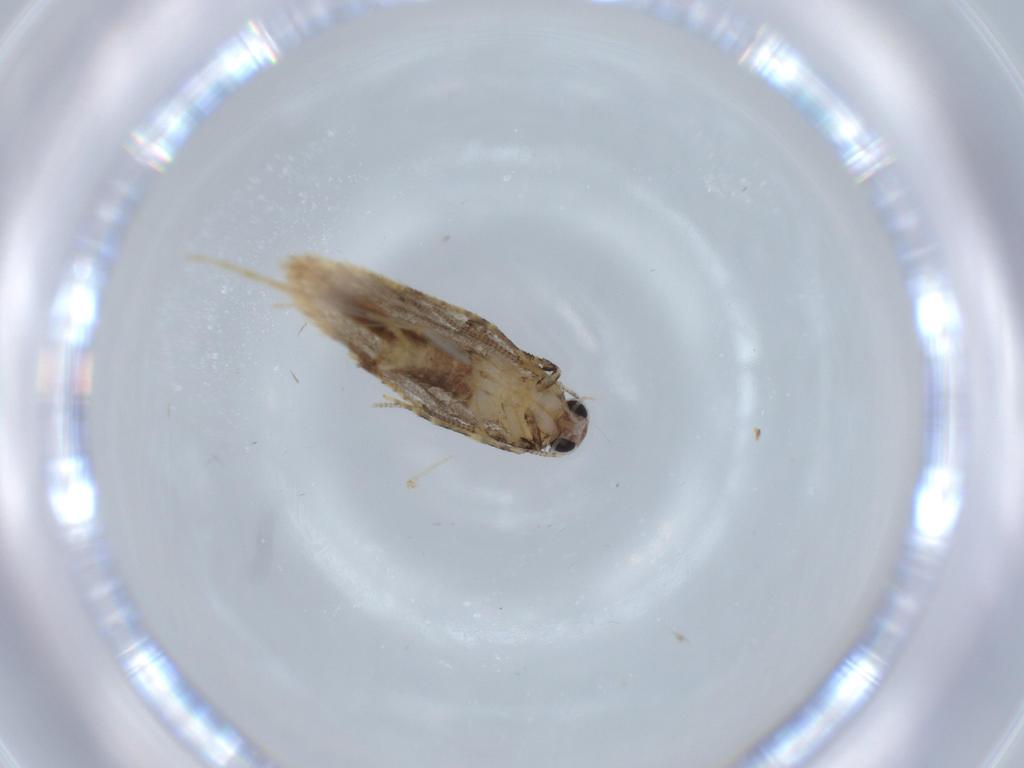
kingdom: Animalia
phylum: Arthropoda
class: Insecta
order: Lepidoptera
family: Tineidae
